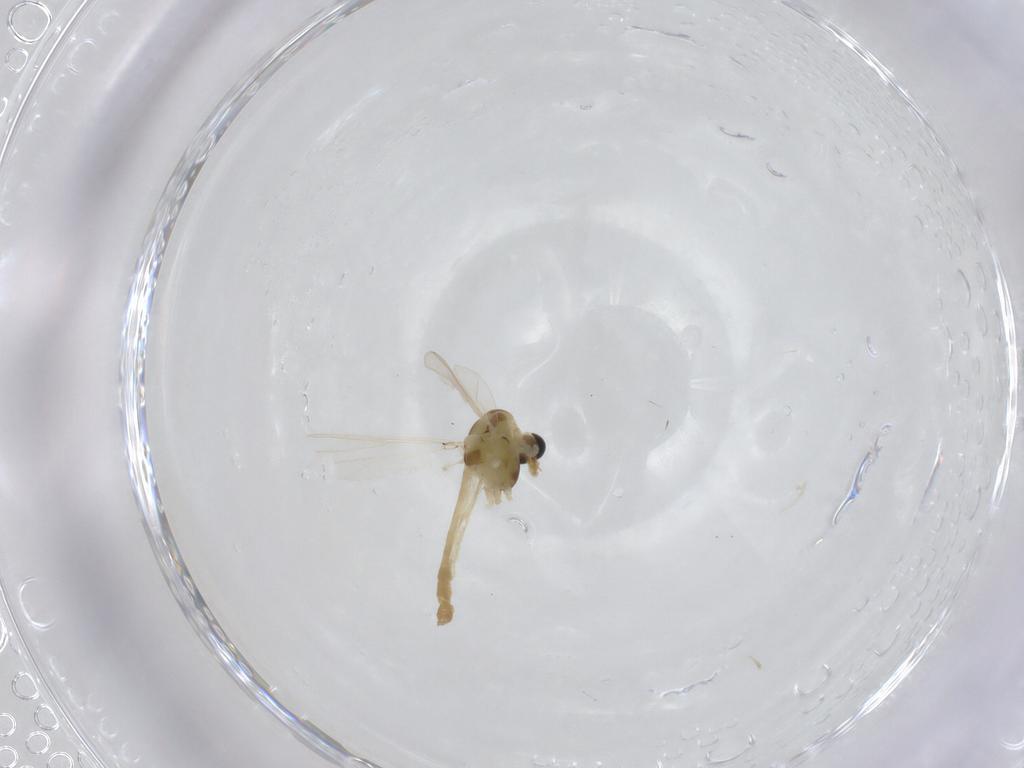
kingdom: Animalia
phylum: Arthropoda
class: Insecta
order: Diptera
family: Chironomidae
